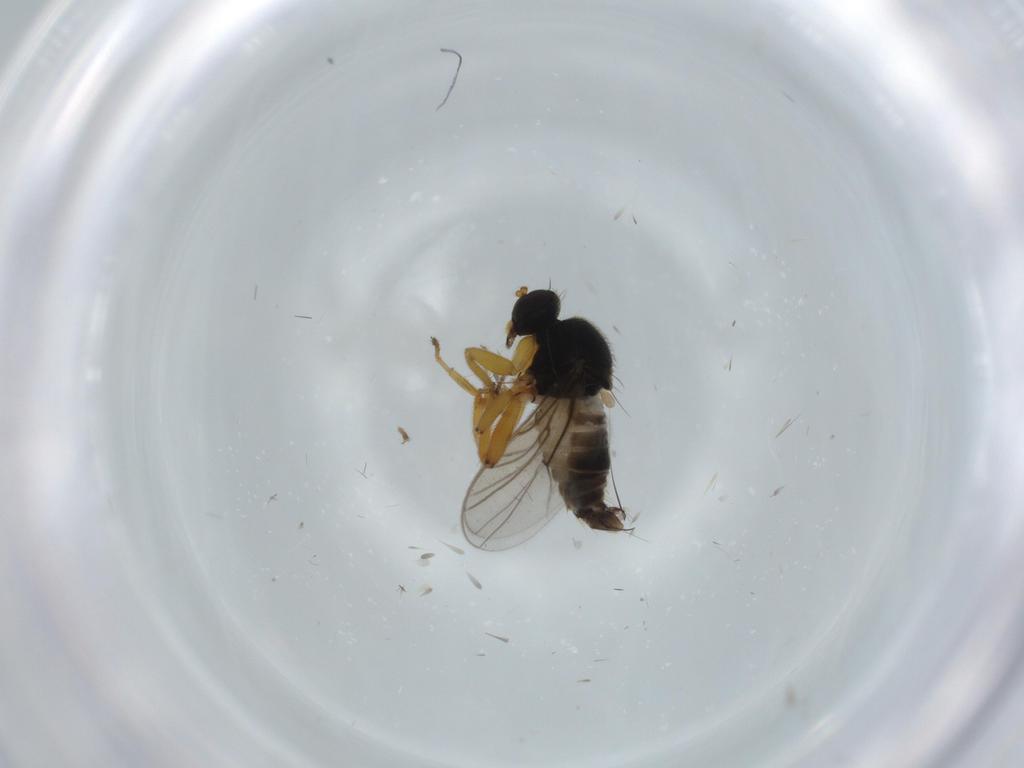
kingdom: Animalia
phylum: Arthropoda
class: Insecta
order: Diptera
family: Hybotidae
